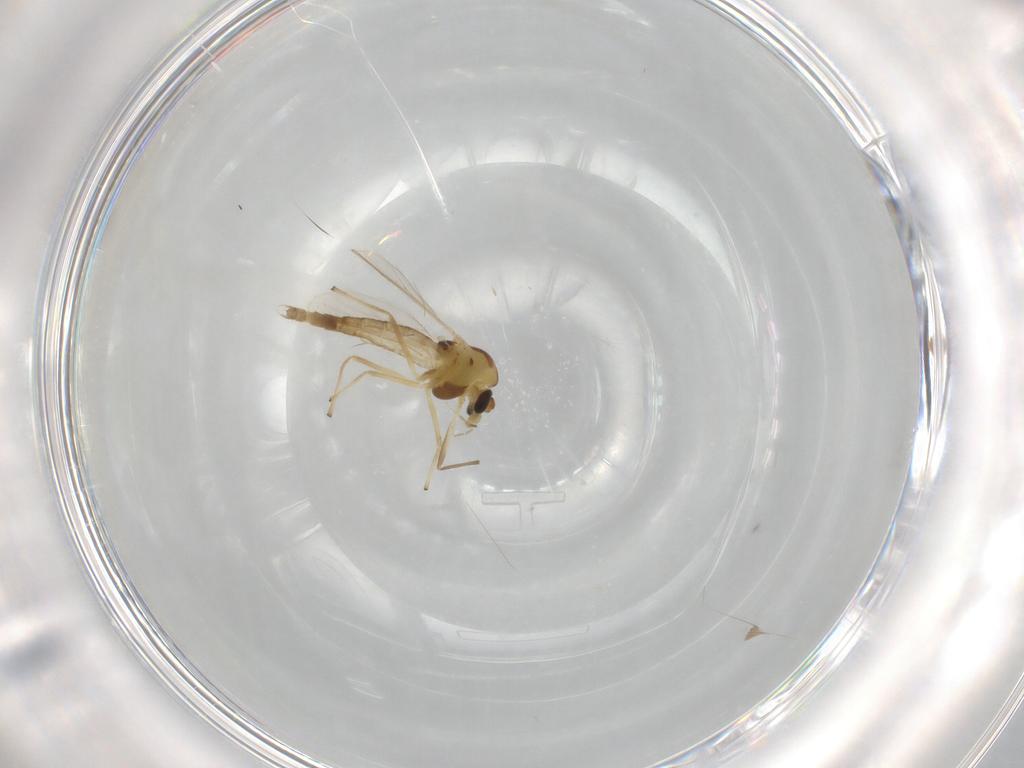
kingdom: Animalia
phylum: Arthropoda
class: Insecta
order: Diptera
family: Chironomidae
